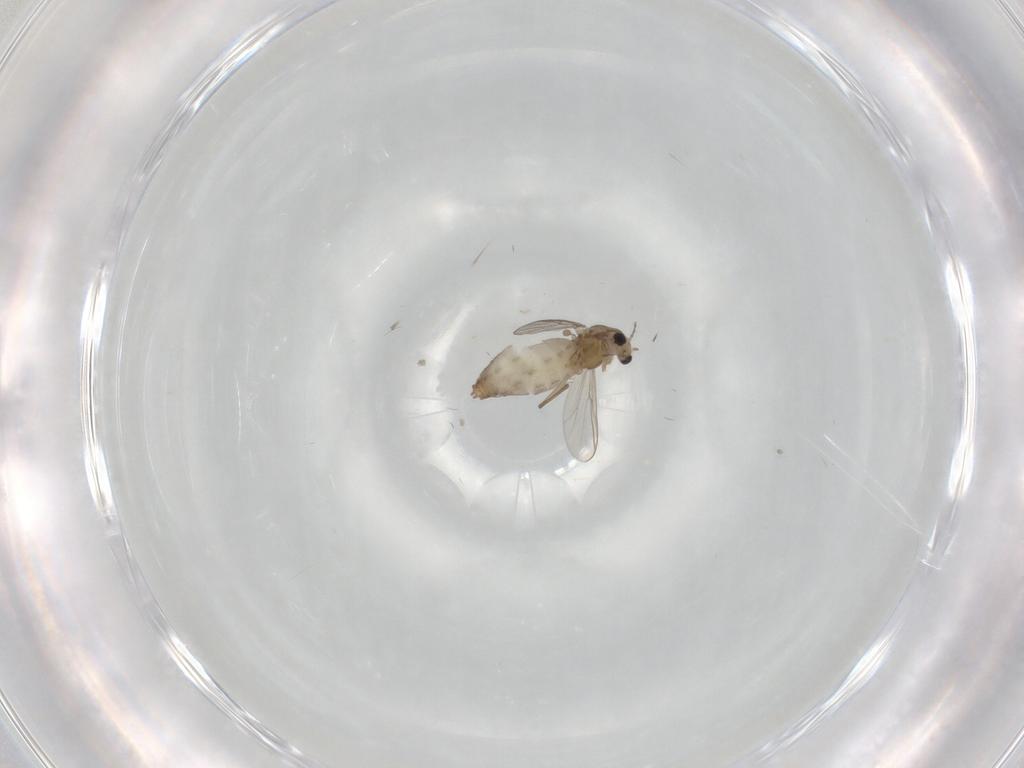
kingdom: Animalia
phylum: Arthropoda
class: Insecta
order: Diptera
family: Chironomidae
